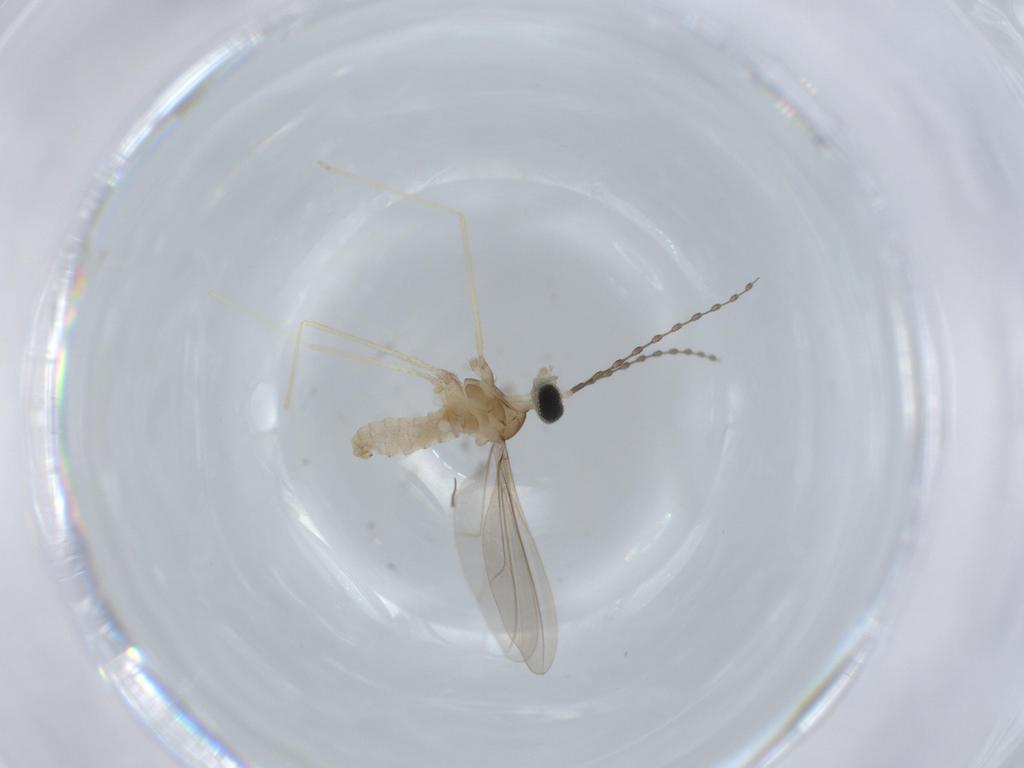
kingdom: Animalia
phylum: Arthropoda
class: Insecta
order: Diptera
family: Cecidomyiidae
